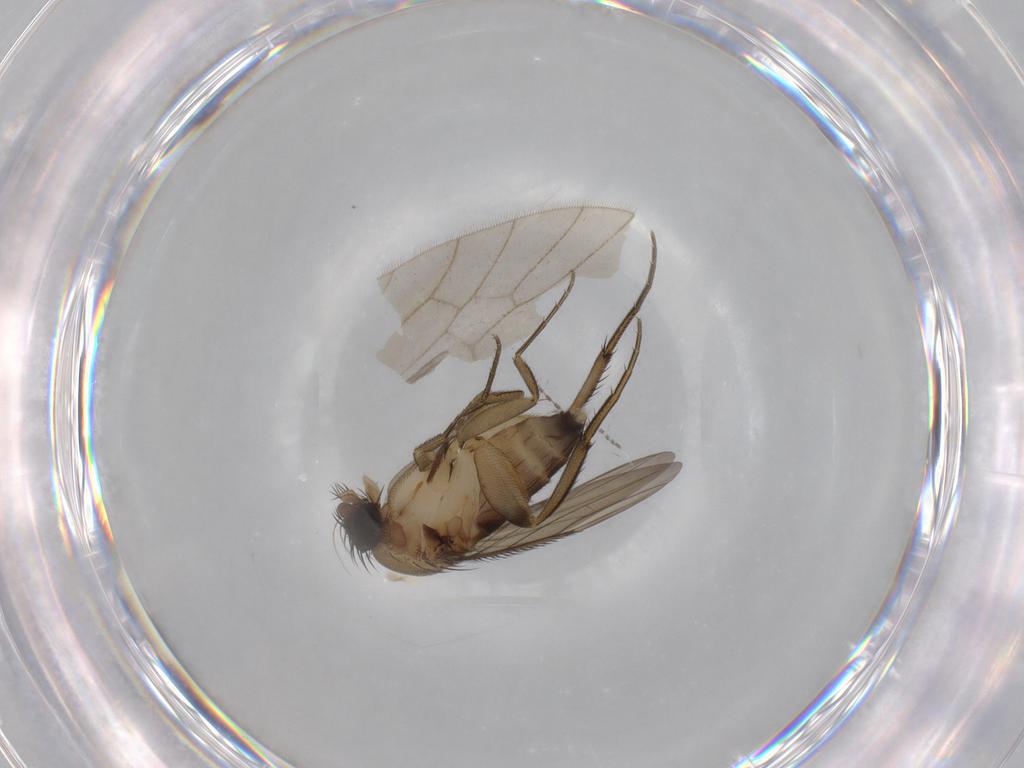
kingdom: Animalia
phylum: Arthropoda
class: Insecta
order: Diptera
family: Phoridae
